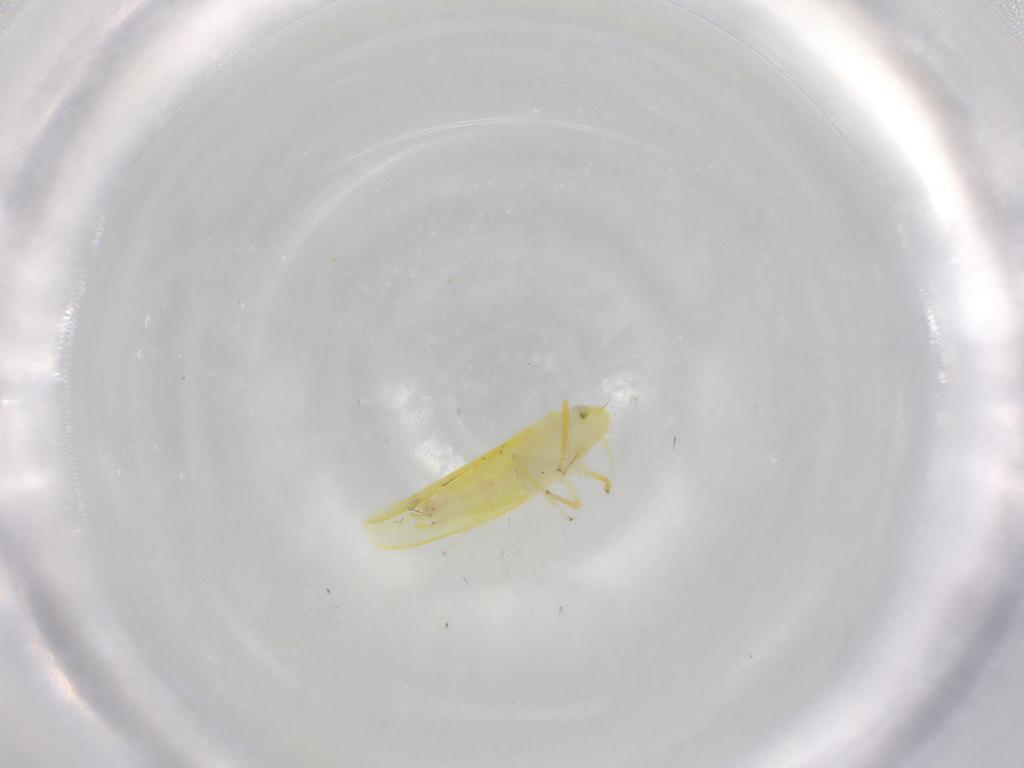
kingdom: Animalia
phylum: Arthropoda
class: Insecta
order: Hemiptera
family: Cicadellidae
